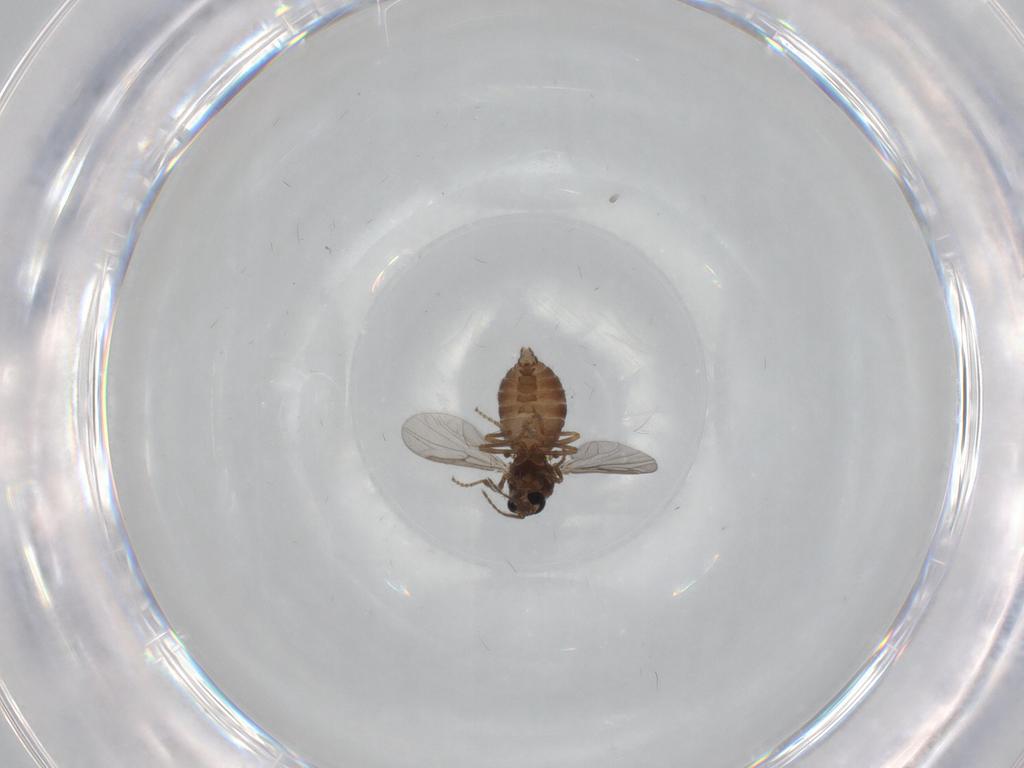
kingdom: Animalia
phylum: Arthropoda
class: Insecta
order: Diptera
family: Ceratopogonidae
